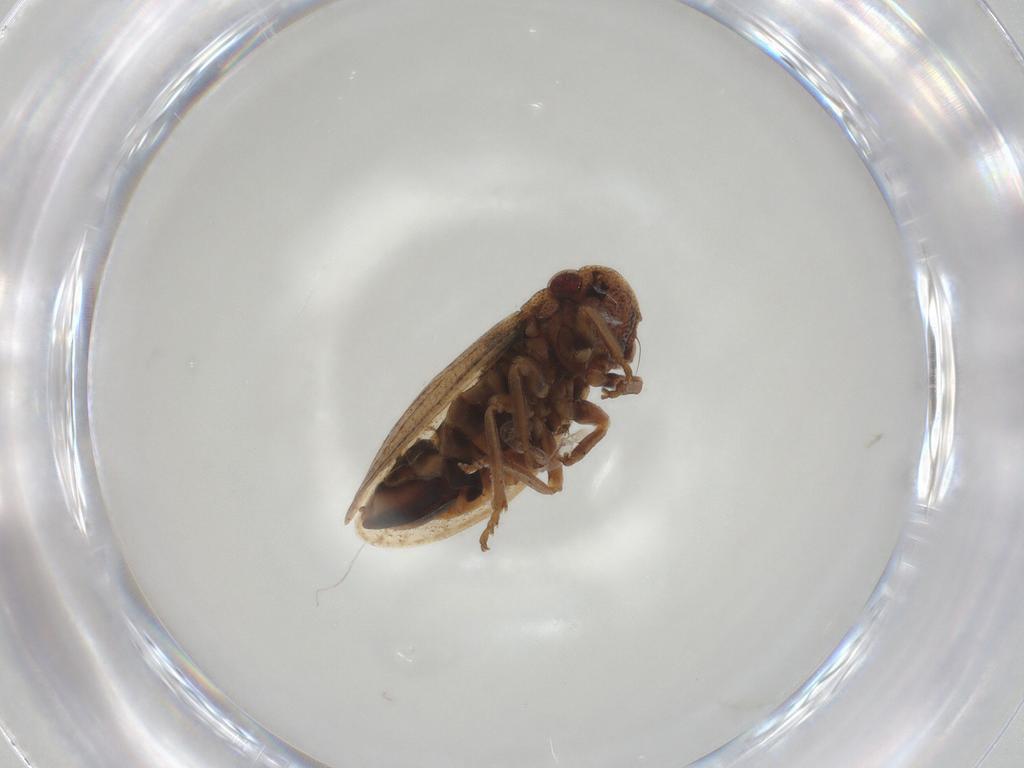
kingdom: Animalia
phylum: Arthropoda
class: Insecta
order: Hemiptera
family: Cicadellidae
